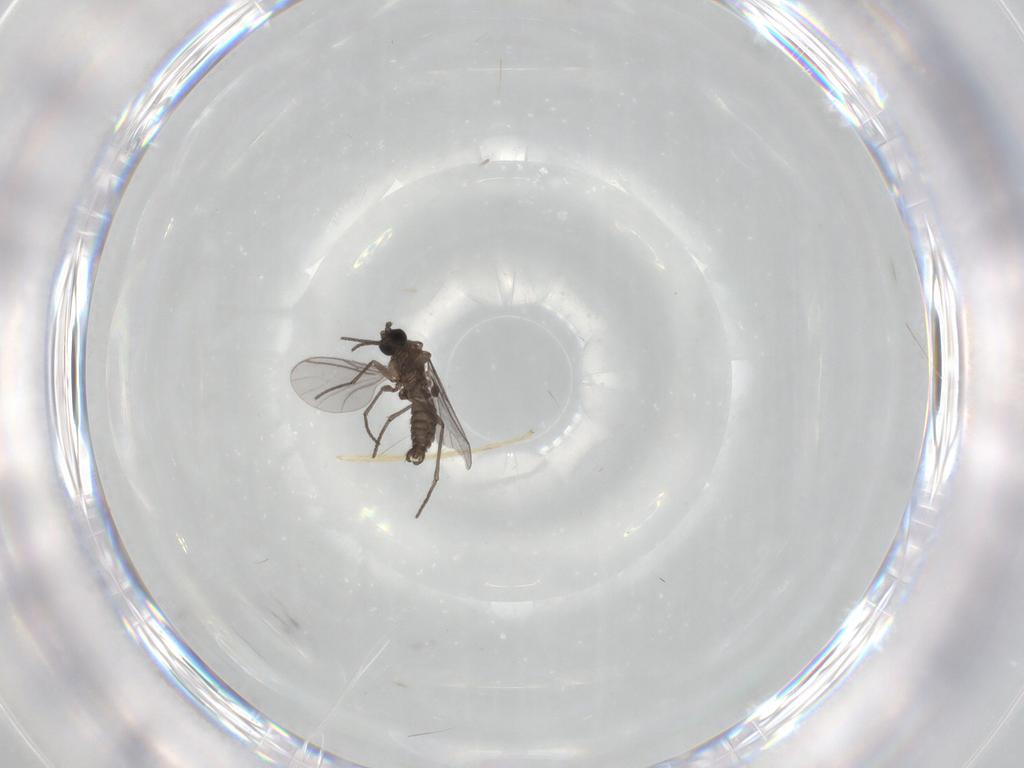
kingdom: Animalia
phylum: Arthropoda
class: Insecta
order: Diptera
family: Sciaridae
